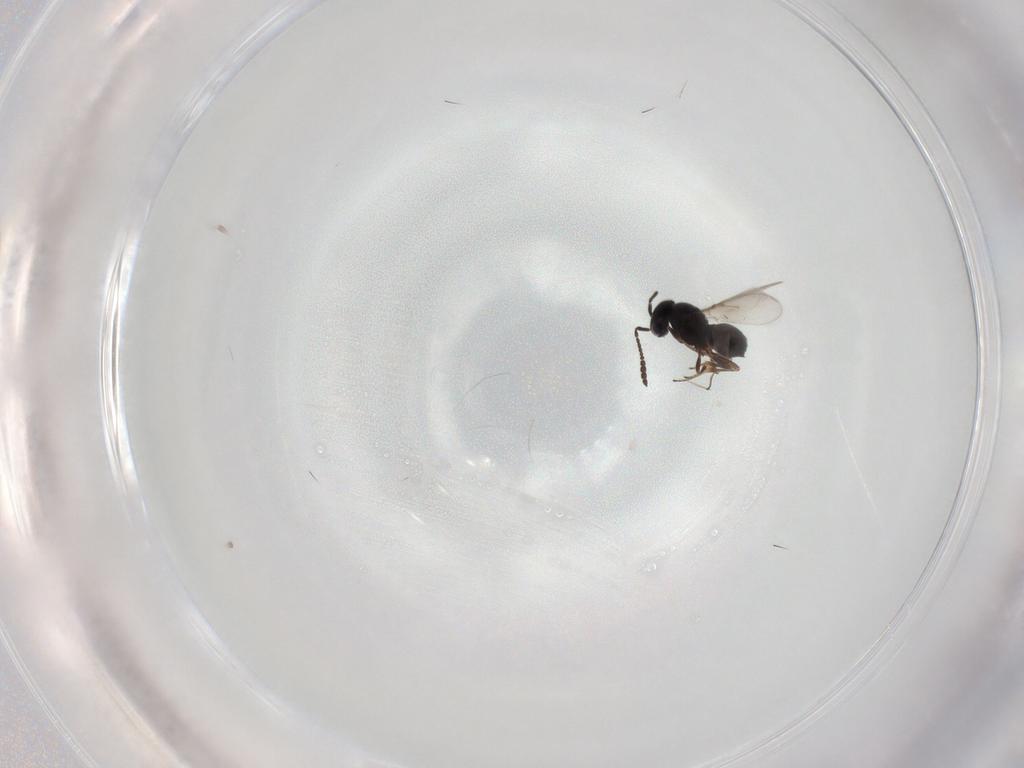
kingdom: Animalia
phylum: Arthropoda
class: Insecta
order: Hymenoptera
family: Scelionidae
